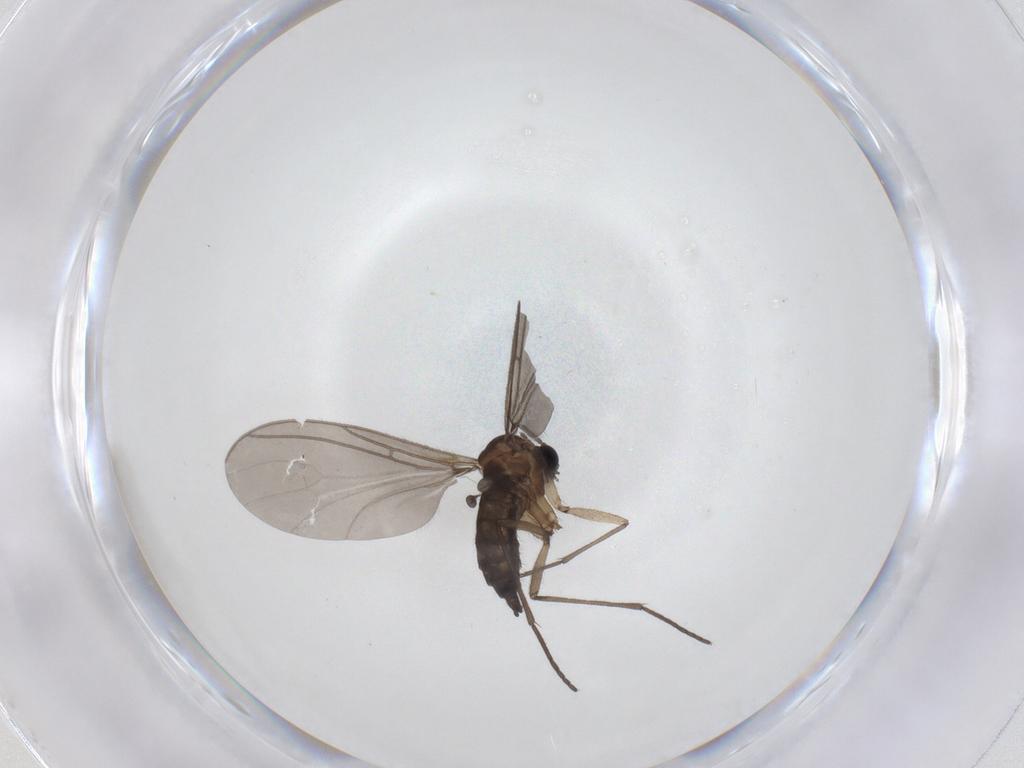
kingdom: Animalia
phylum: Arthropoda
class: Insecta
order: Diptera
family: Sciaridae
